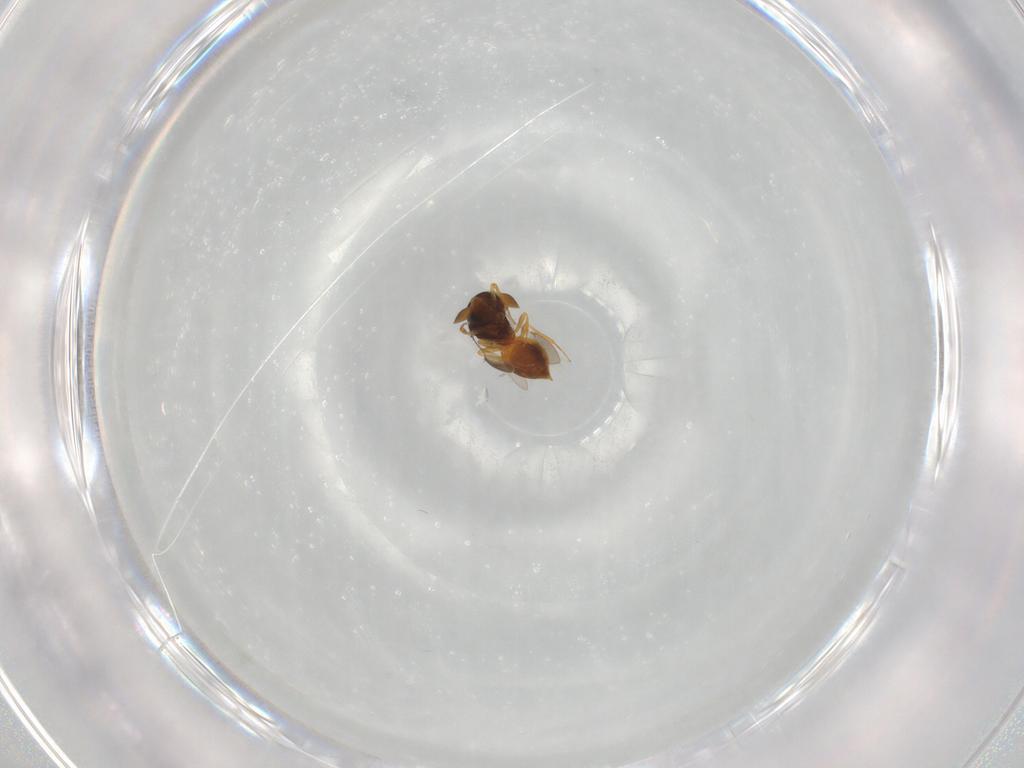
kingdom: Animalia
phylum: Arthropoda
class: Insecta
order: Hymenoptera
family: Scelionidae
